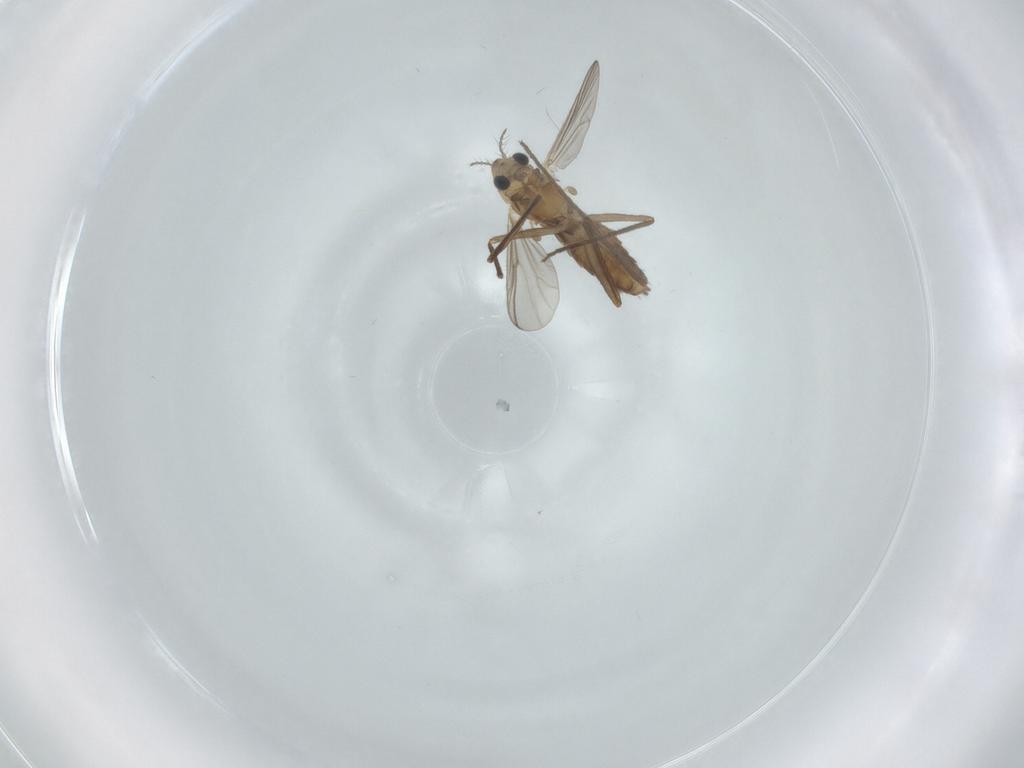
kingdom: Animalia
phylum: Arthropoda
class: Insecta
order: Diptera
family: Chironomidae
